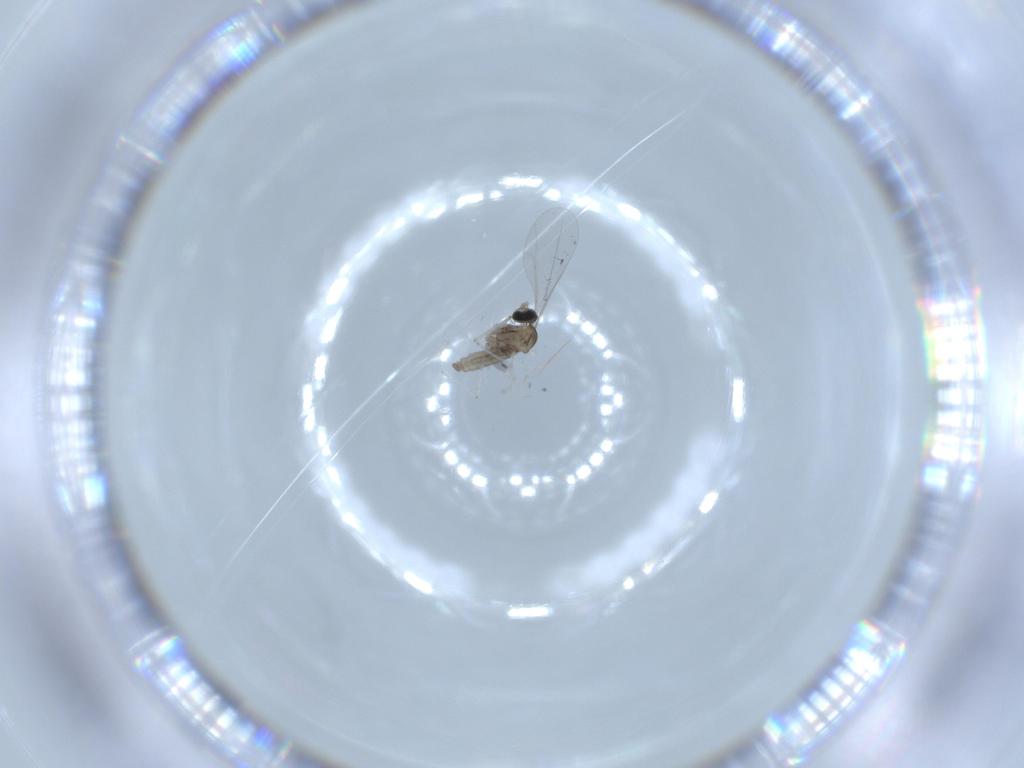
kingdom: Animalia
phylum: Arthropoda
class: Insecta
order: Diptera
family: Cecidomyiidae
